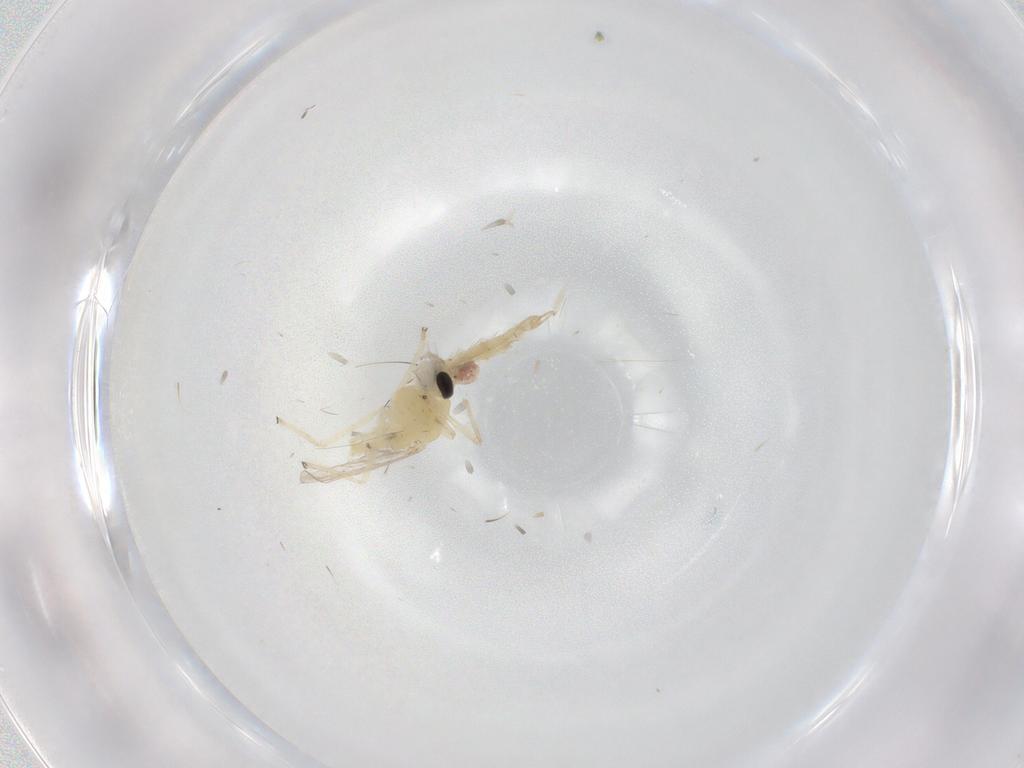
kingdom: Animalia
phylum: Arthropoda
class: Insecta
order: Diptera
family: Chironomidae
